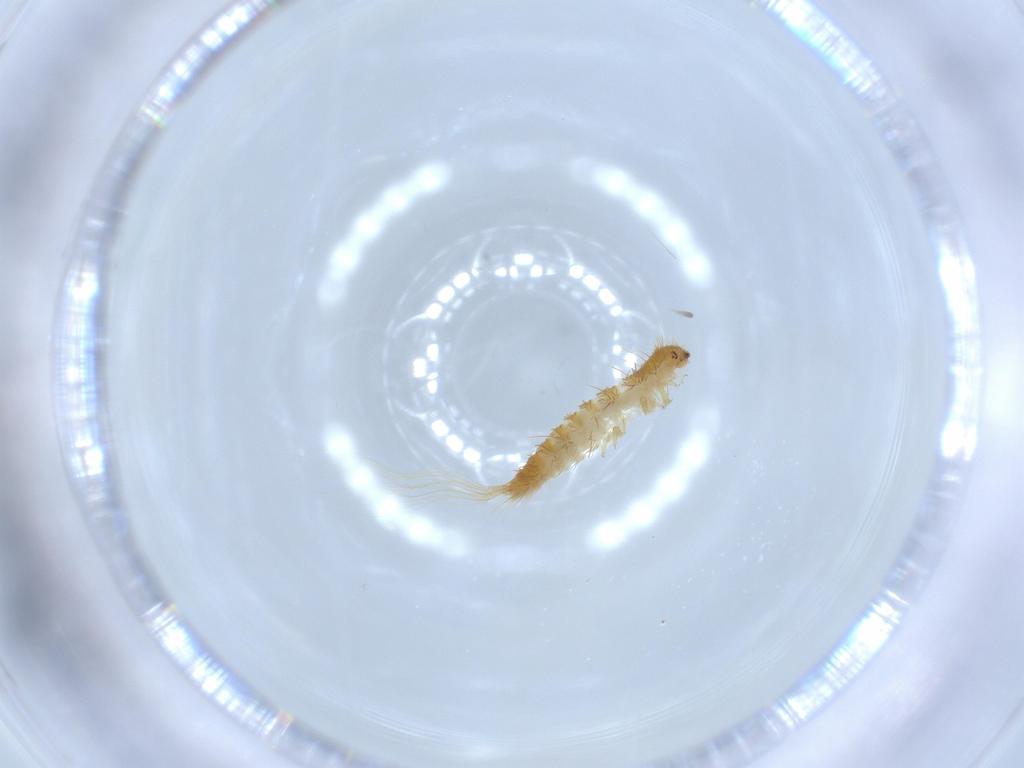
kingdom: Animalia
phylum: Arthropoda
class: Insecta
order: Coleoptera
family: Dermestidae
